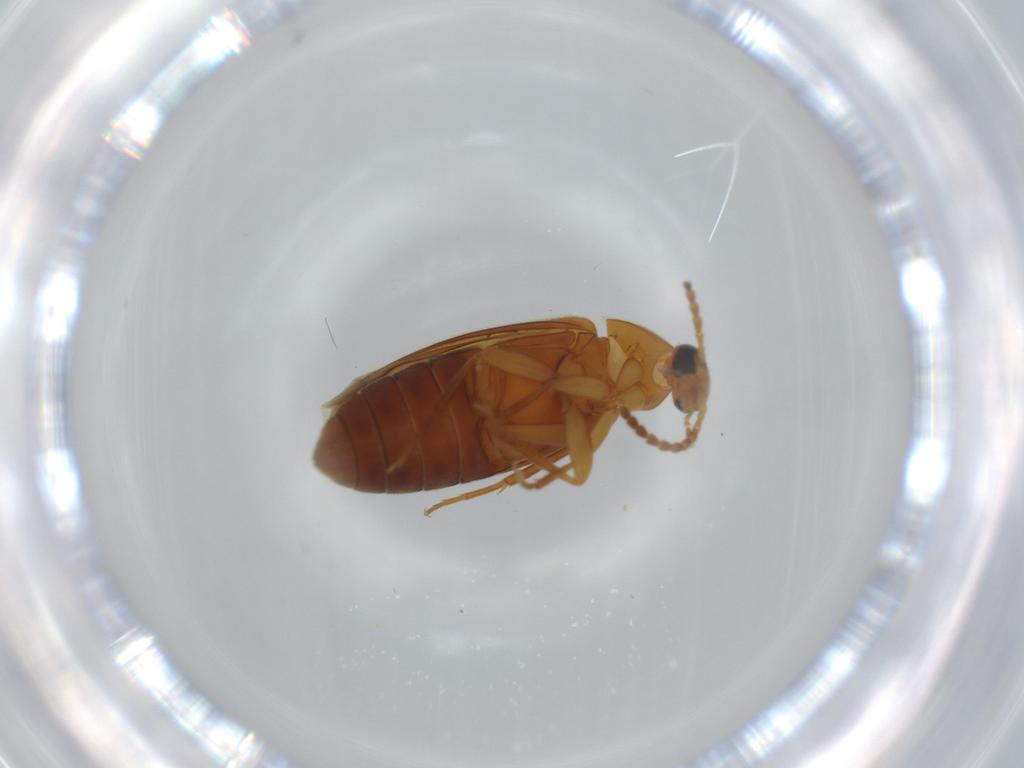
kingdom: Animalia
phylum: Arthropoda
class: Insecta
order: Coleoptera
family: Scraptiidae
